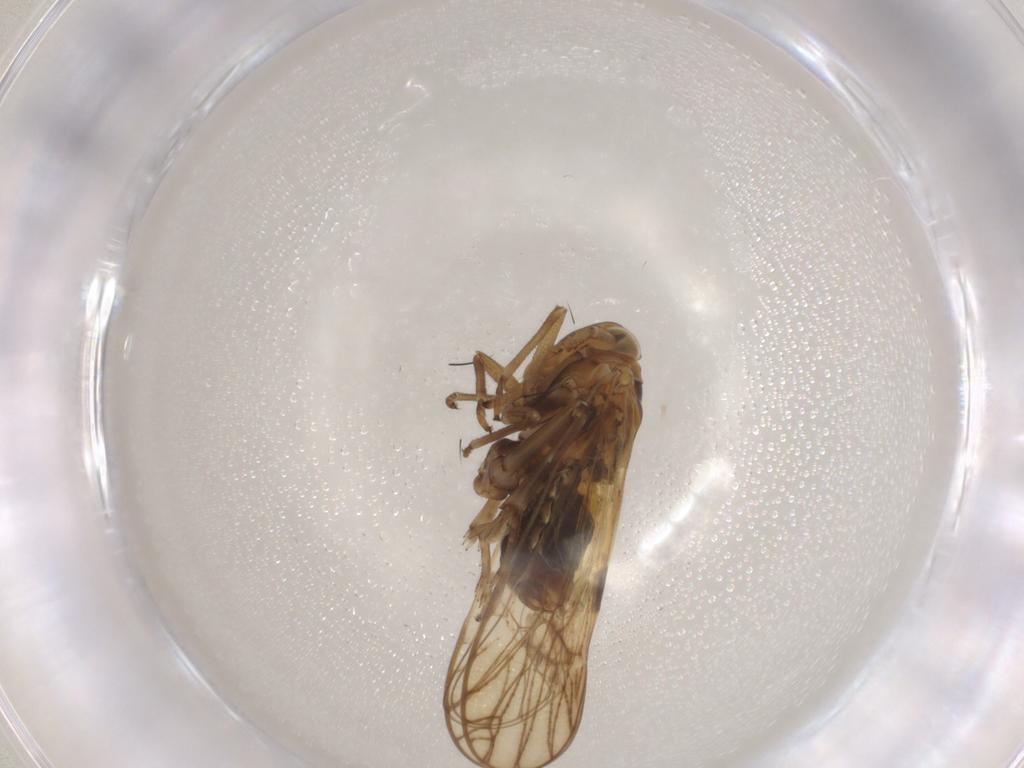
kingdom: Animalia
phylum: Arthropoda
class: Insecta
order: Hemiptera
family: Delphacidae
